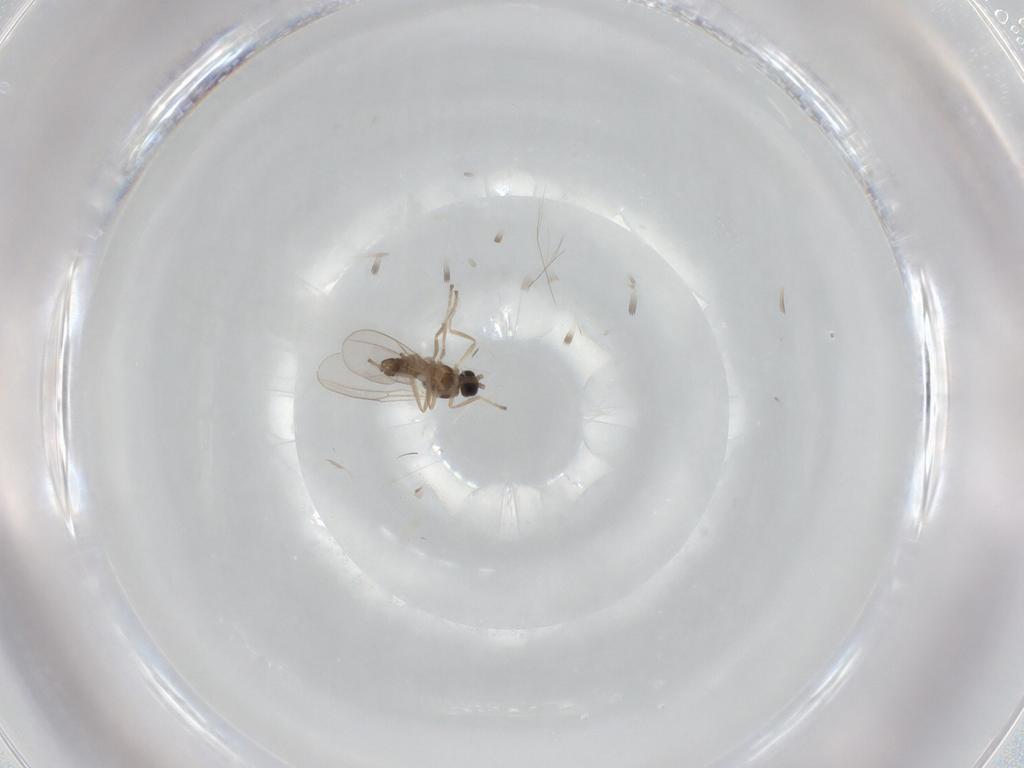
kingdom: Animalia
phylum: Arthropoda
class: Insecta
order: Diptera
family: Cecidomyiidae
